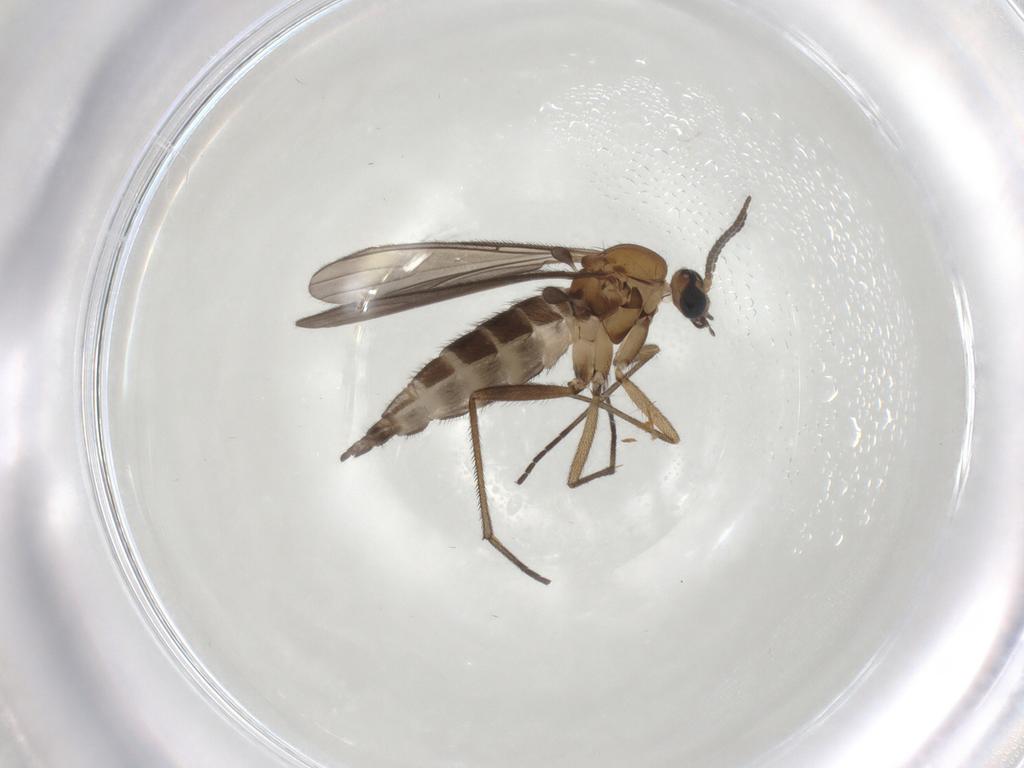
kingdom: Animalia
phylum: Arthropoda
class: Insecta
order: Diptera
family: Sciaridae
